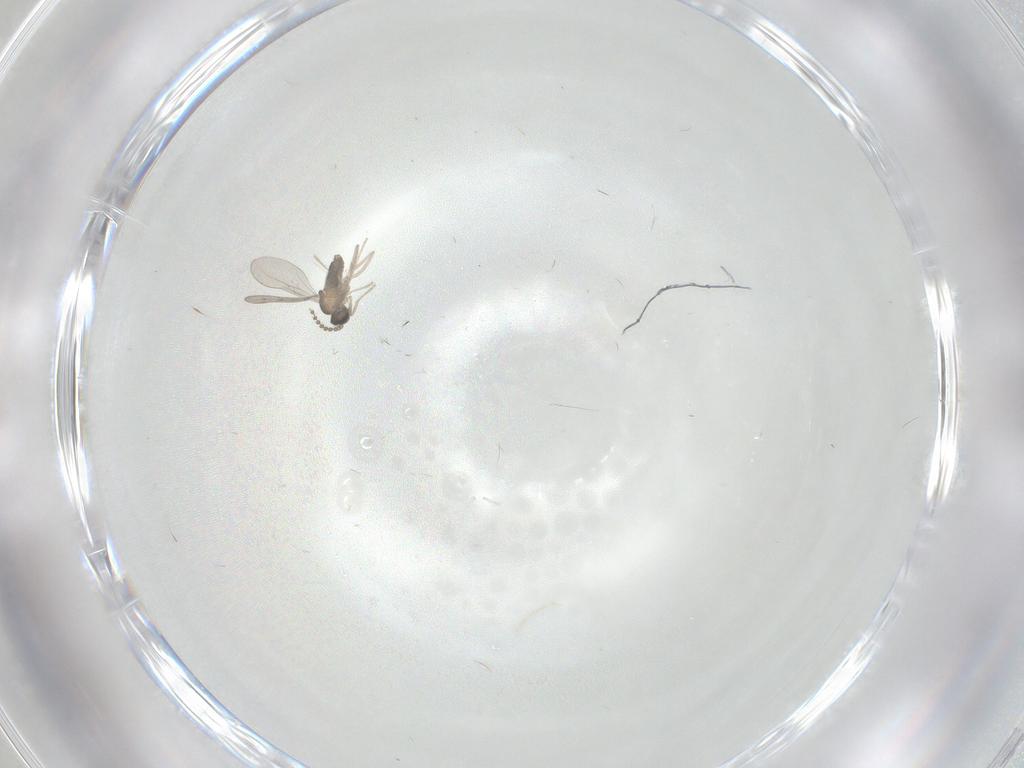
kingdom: Animalia
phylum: Arthropoda
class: Insecta
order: Diptera
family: Cecidomyiidae
